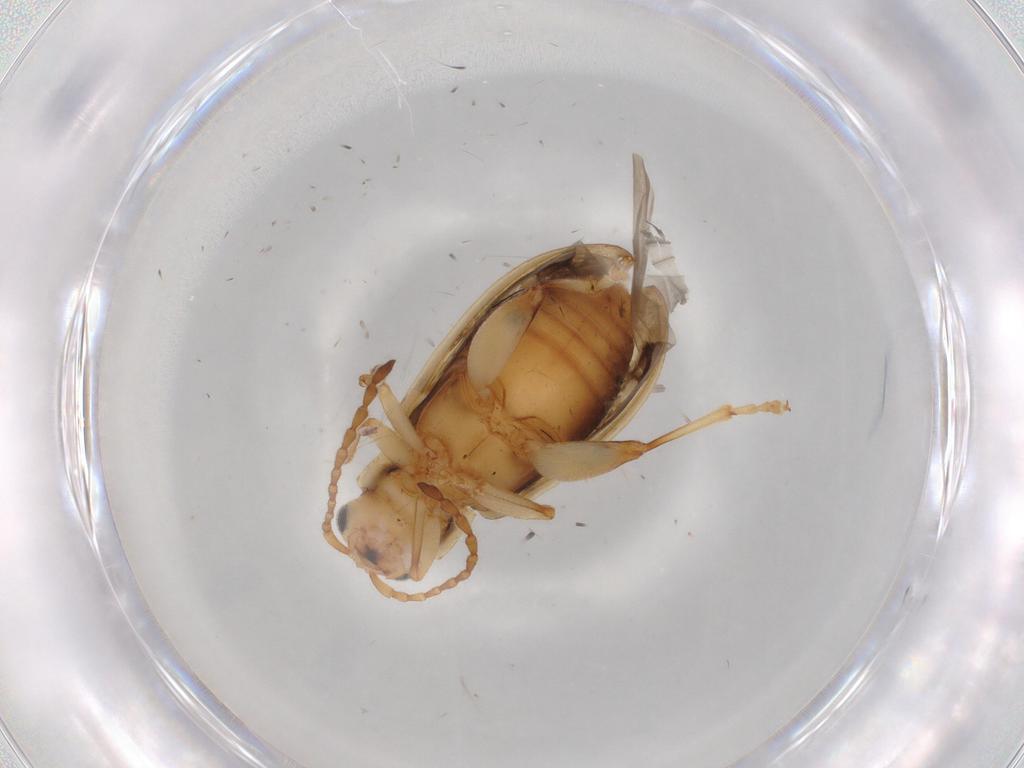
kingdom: Animalia
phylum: Arthropoda
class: Insecta
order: Coleoptera
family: Chrysomelidae
